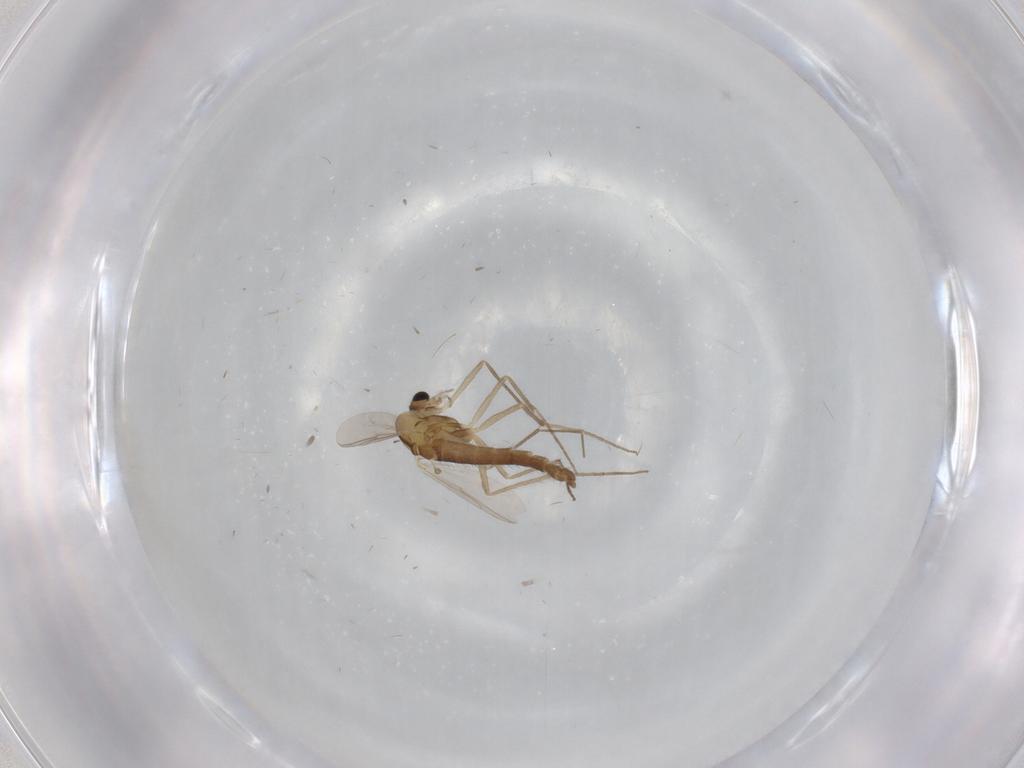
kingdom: Animalia
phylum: Arthropoda
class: Insecta
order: Diptera
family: Chironomidae
